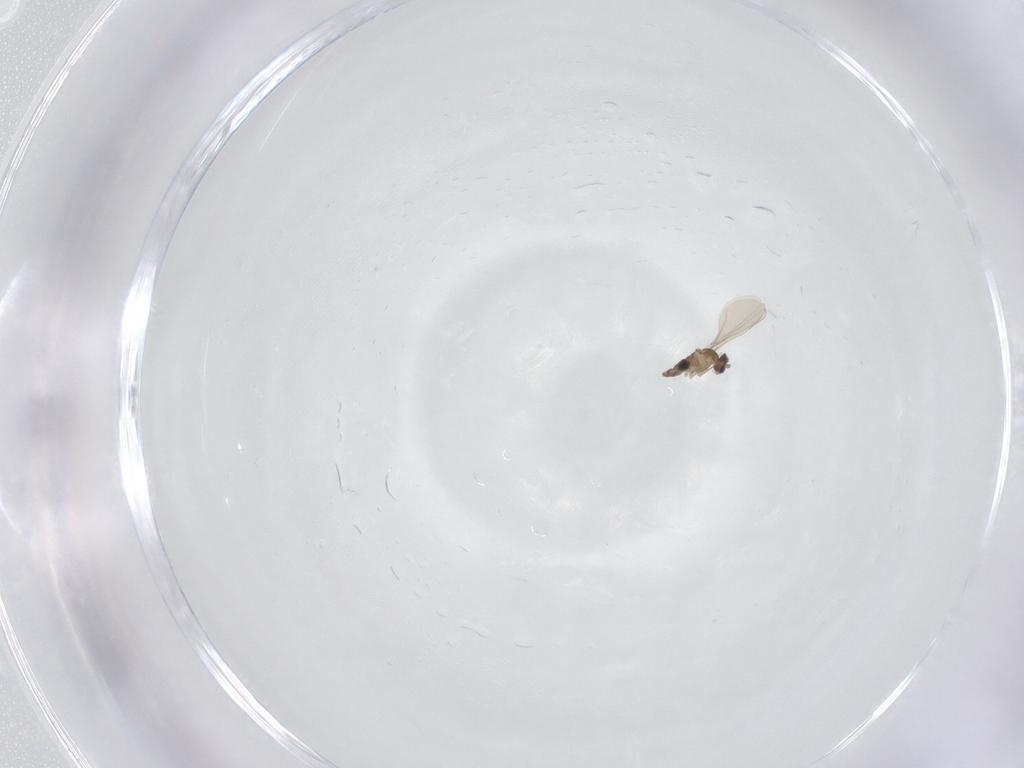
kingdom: Animalia
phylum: Arthropoda
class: Insecta
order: Diptera
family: Cecidomyiidae
